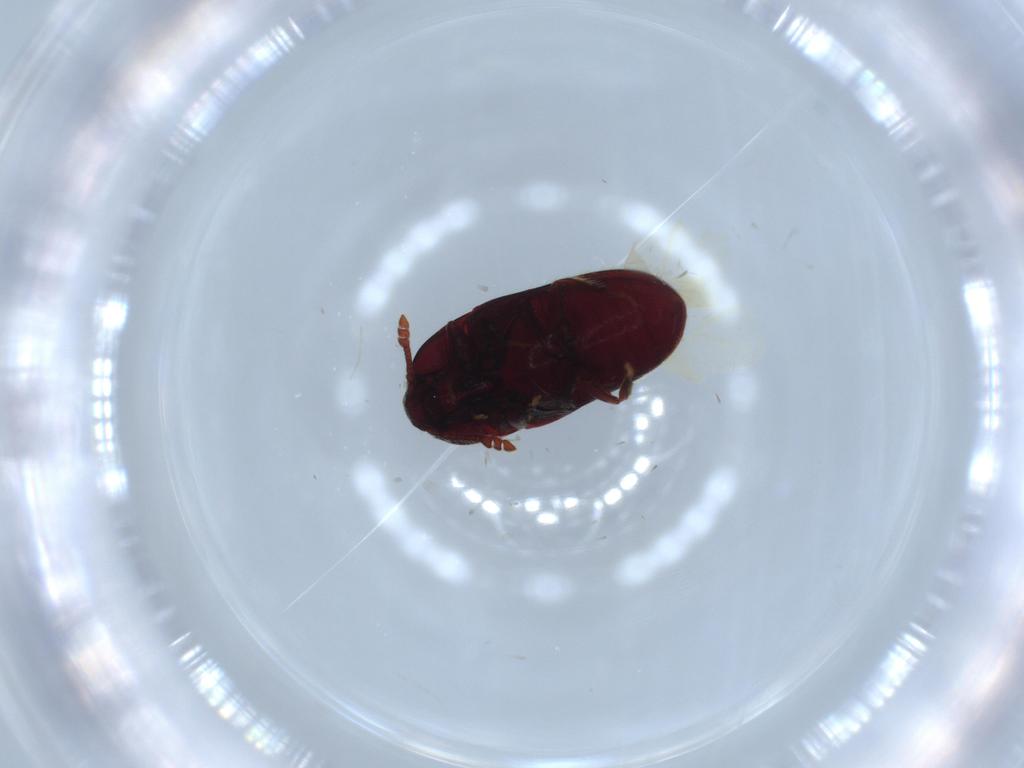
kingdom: Animalia
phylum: Arthropoda
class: Insecta
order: Coleoptera
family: Throscidae
